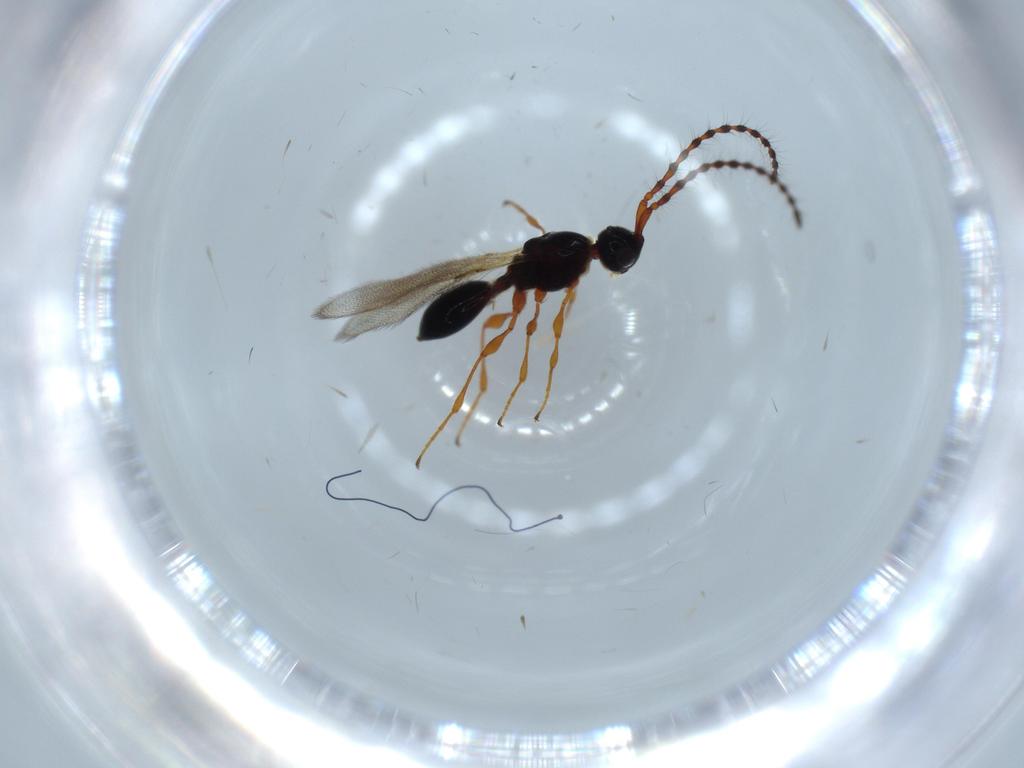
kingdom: Animalia
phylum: Arthropoda
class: Insecta
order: Hymenoptera
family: Diapriidae
